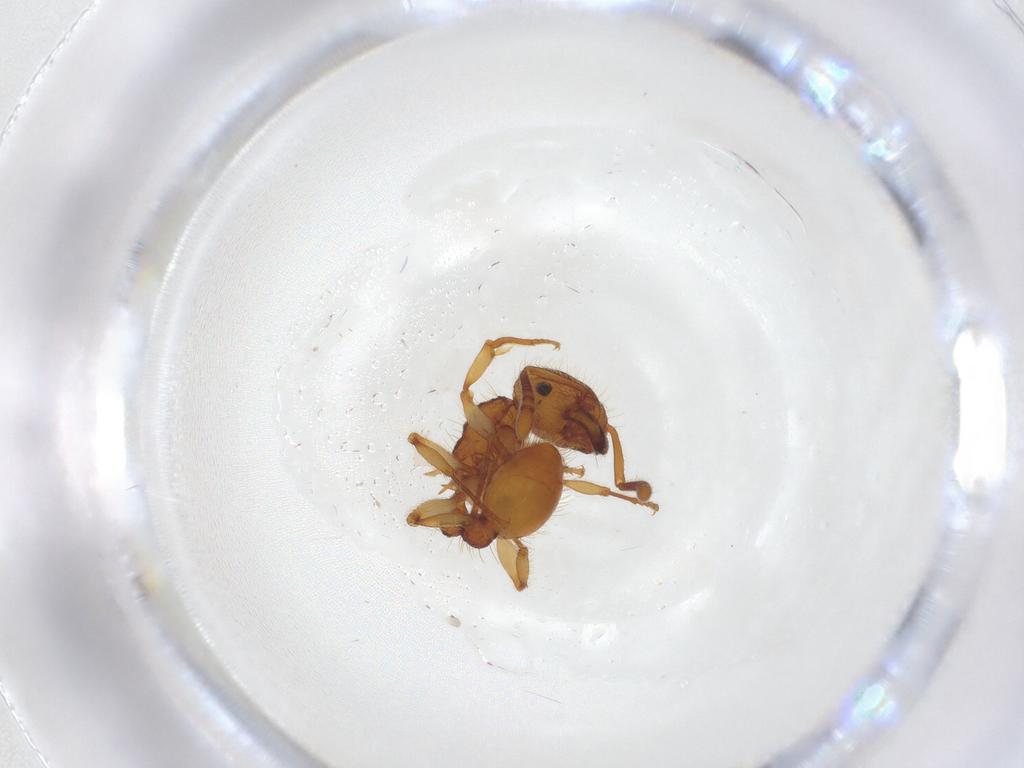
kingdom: Animalia
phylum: Arthropoda
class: Insecta
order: Hymenoptera
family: Formicidae
